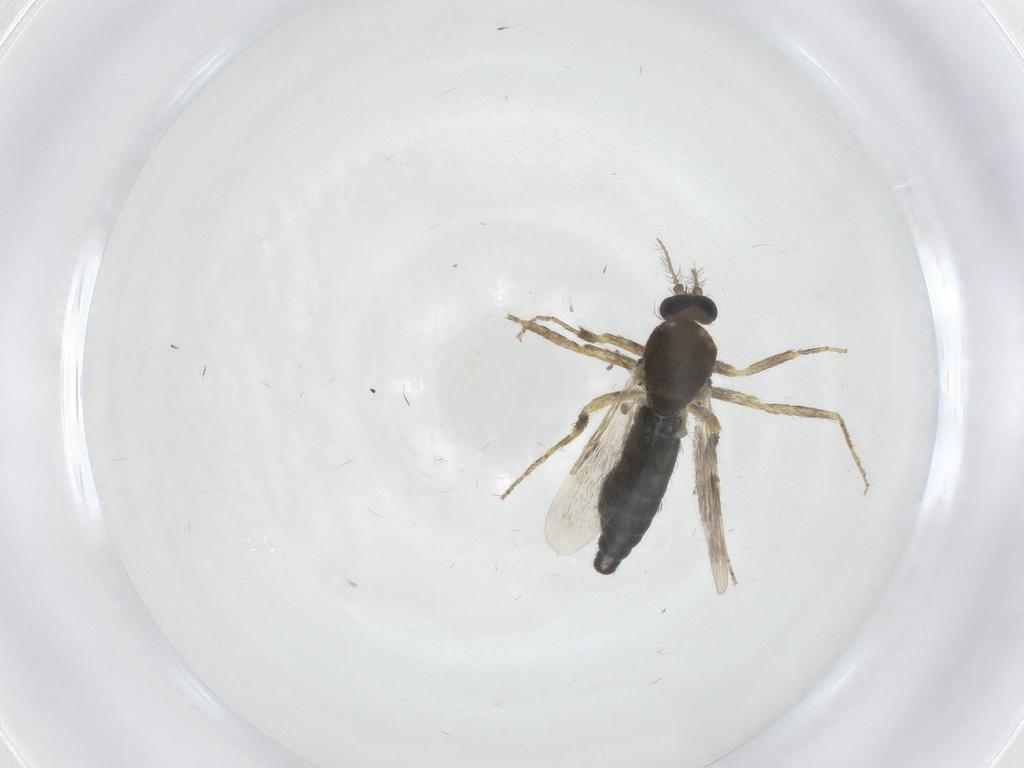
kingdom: Animalia
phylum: Arthropoda
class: Insecta
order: Diptera
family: Ceratopogonidae
